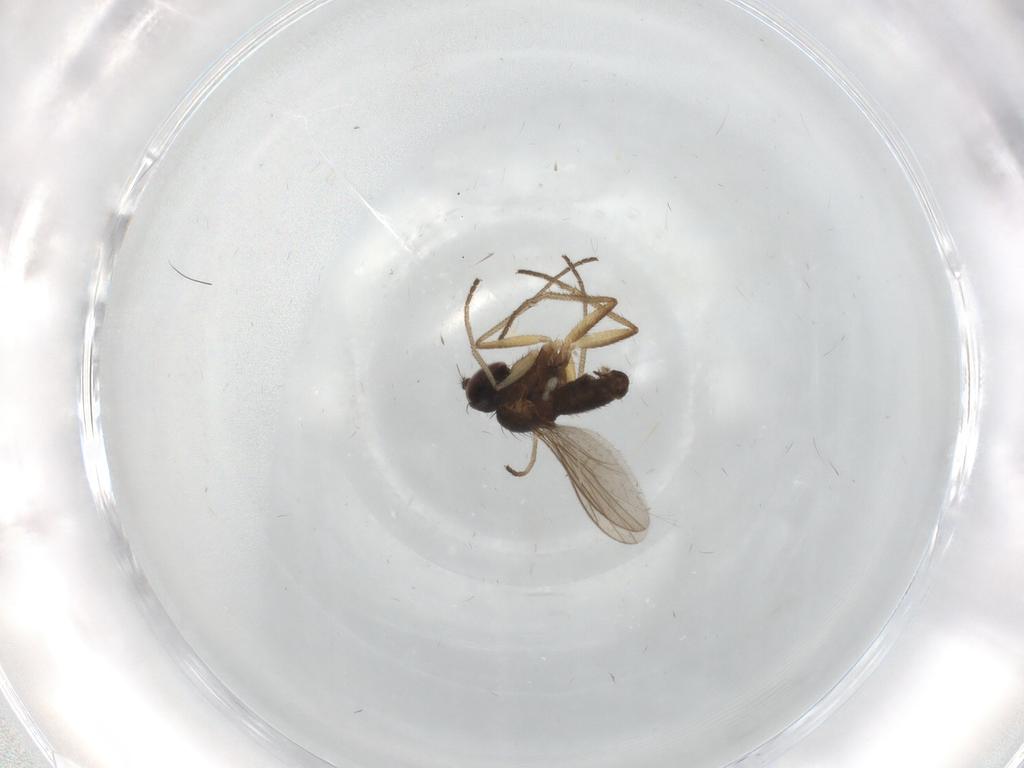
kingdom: Animalia
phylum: Arthropoda
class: Insecta
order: Diptera
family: Dolichopodidae
